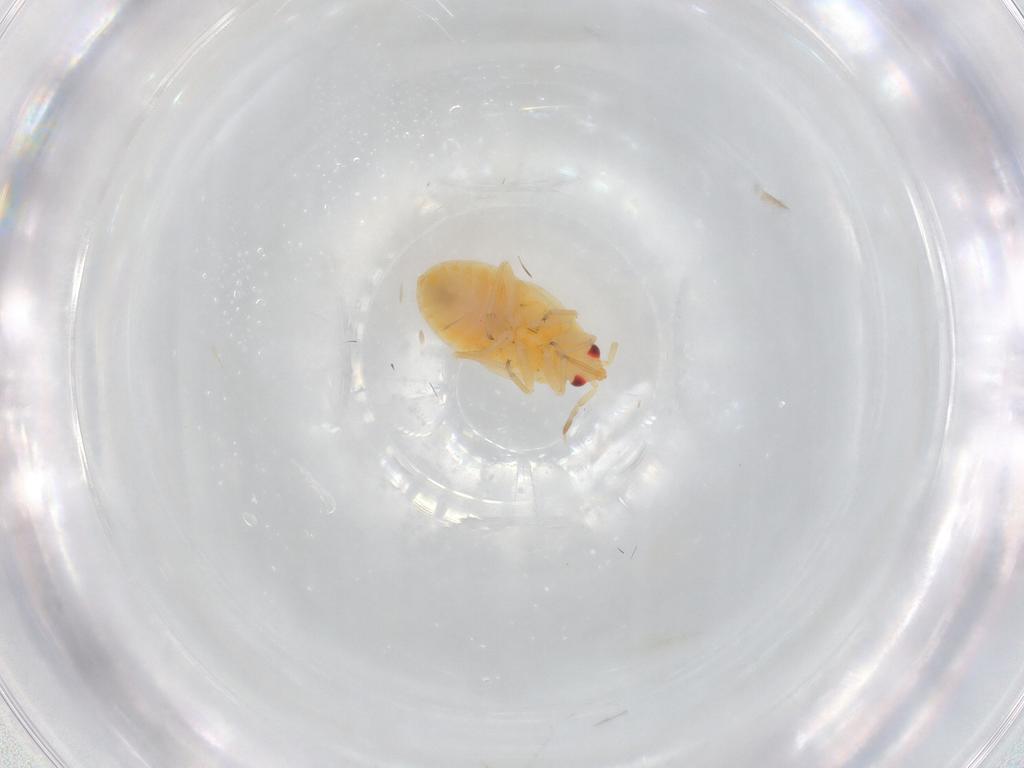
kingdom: Animalia
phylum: Arthropoda
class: Insecta
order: Hemiptera
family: Anthocoridae
